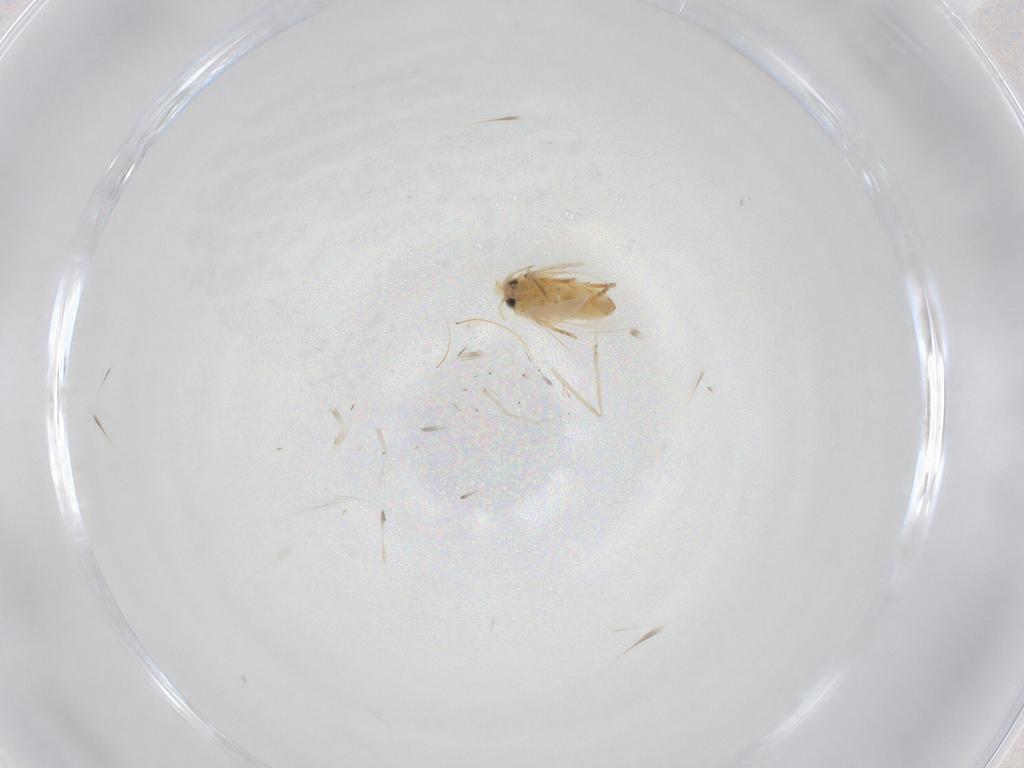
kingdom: Animalia
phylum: Arthropoda
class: Insecta
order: Lepidoptera
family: Crambidae
